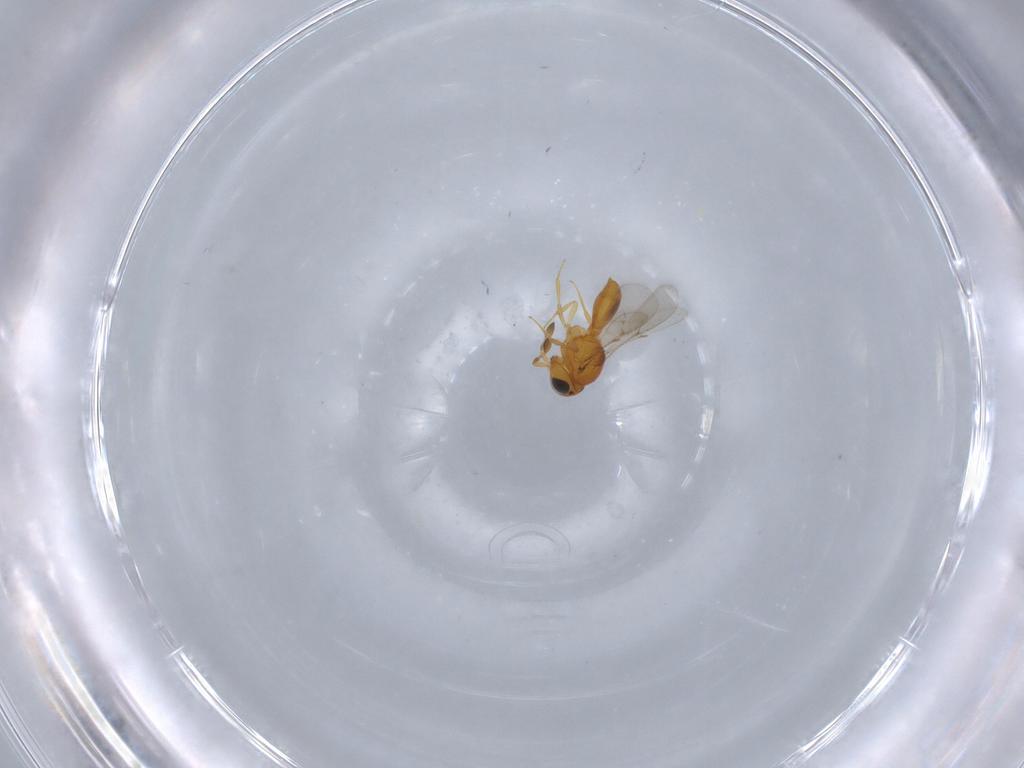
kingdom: Animalia
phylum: Arthropoda
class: Insecta
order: Hymenoptera
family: Scelionidae
